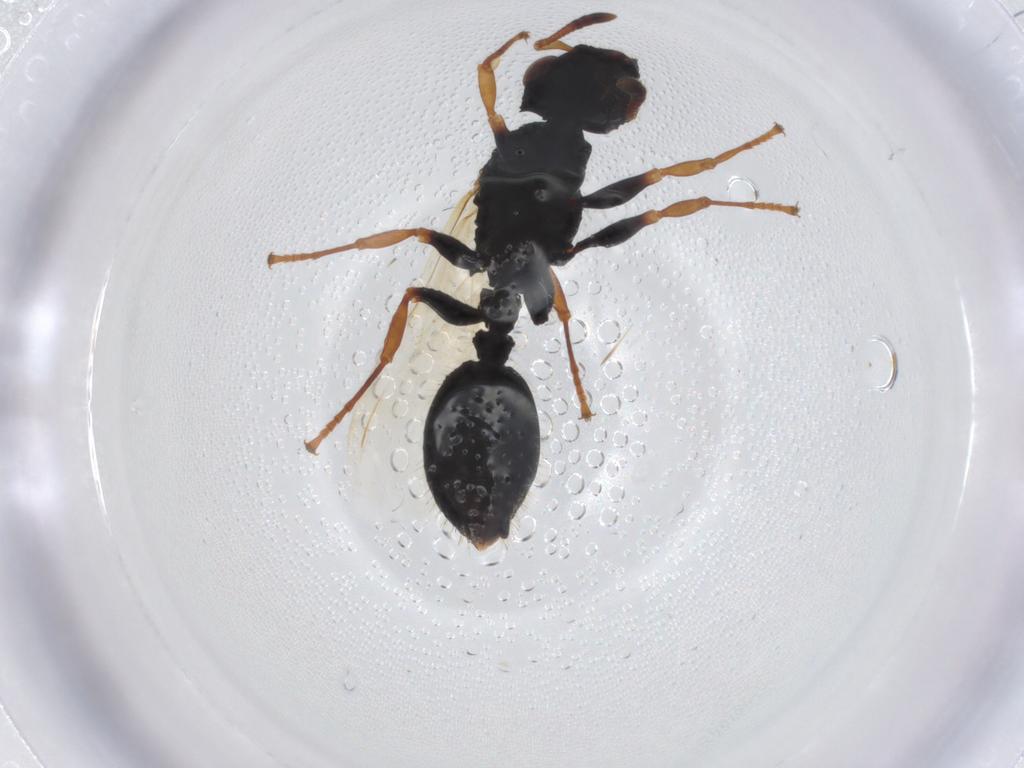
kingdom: Animalia
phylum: Arthropoda
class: Insecta
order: Hymenoptera
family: Formicidae
